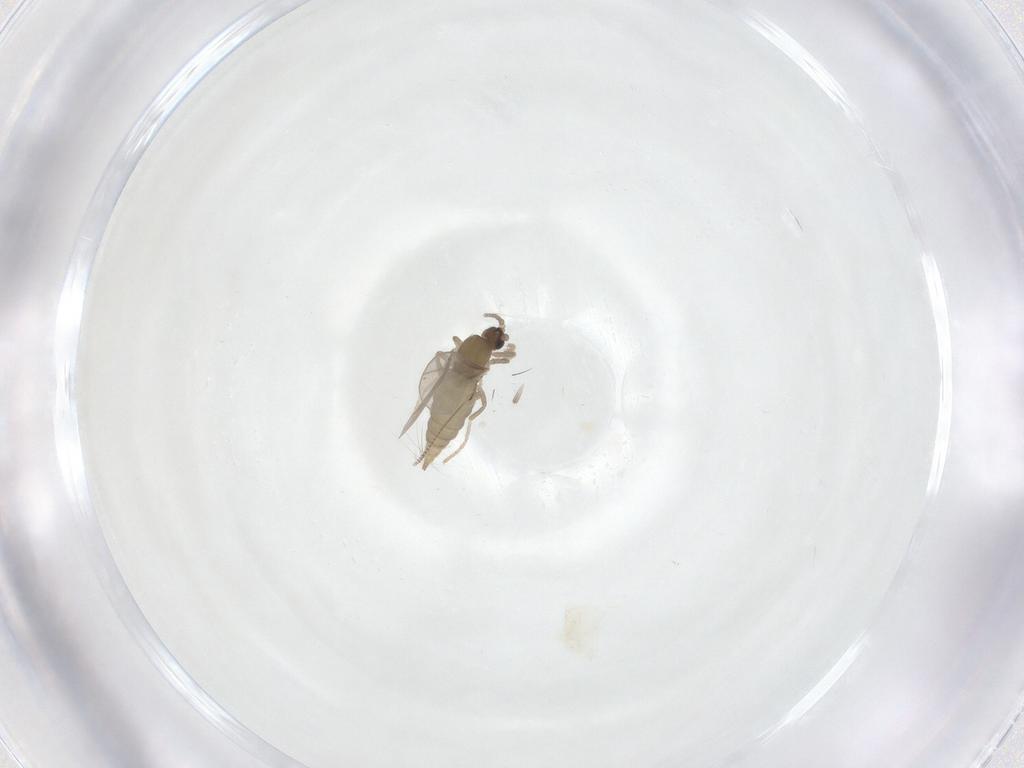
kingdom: Animalia
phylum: Arthropoda
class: Insecta
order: Diptera
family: Cecidomyiidae
